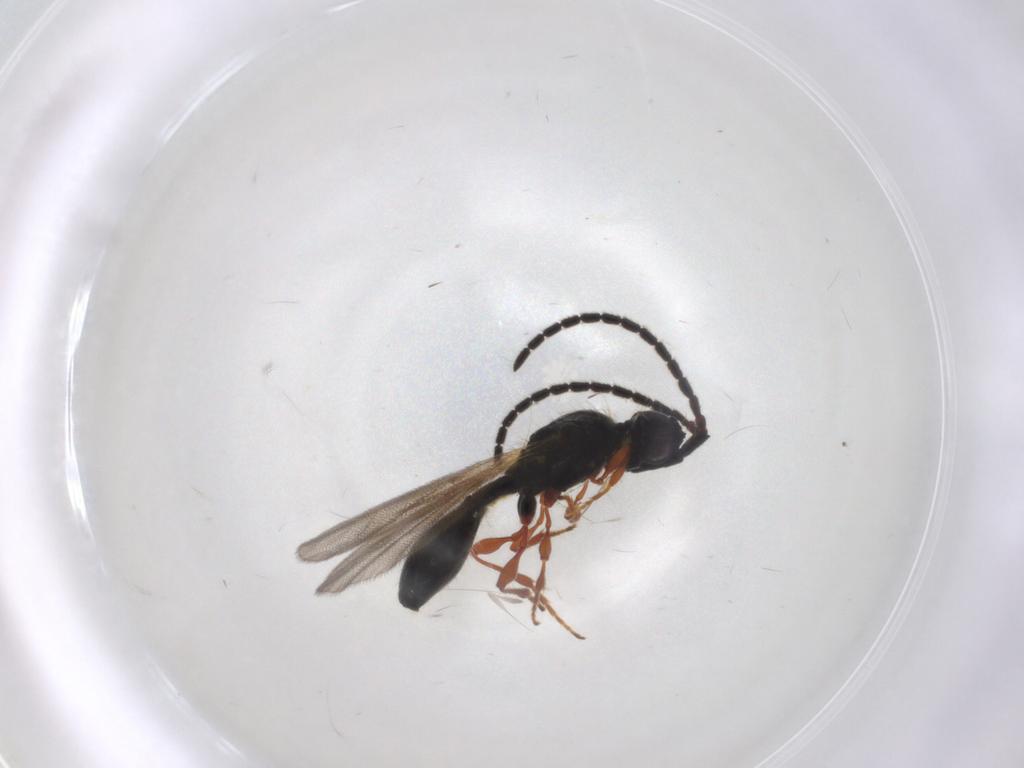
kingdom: Animalia
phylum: Arthropoda
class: Insecta
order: Hymenoptera
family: Diapriidae
